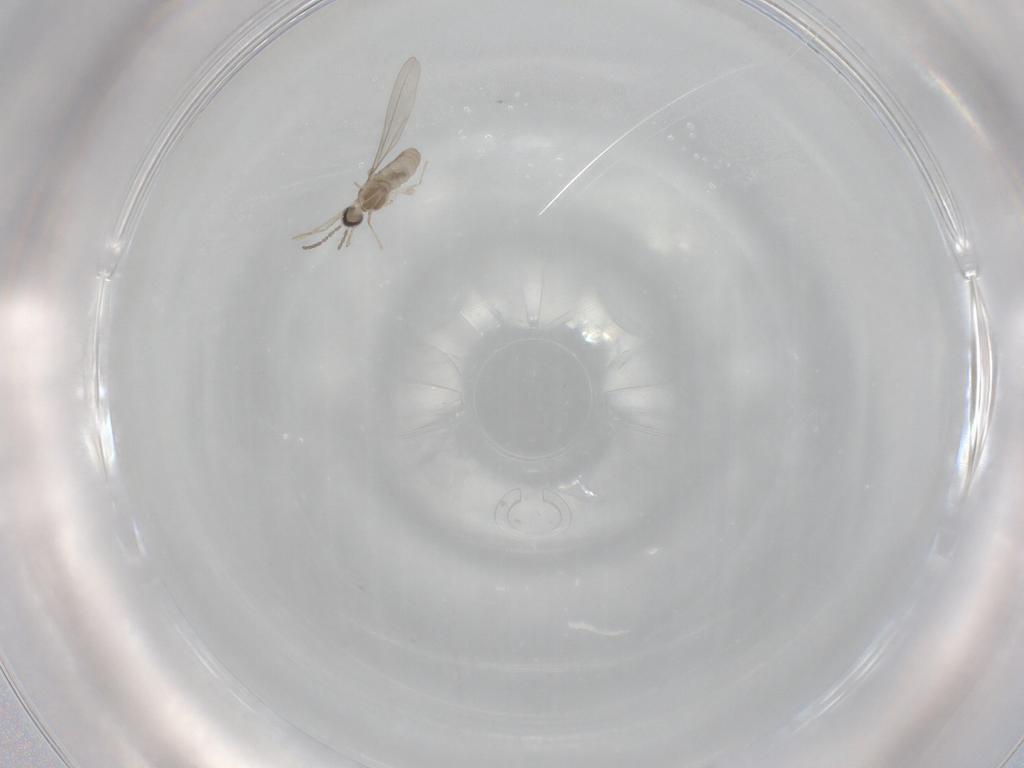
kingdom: Animalia
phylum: Arthropoda
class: Insecta
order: Diptera
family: Cecidomyiidae
